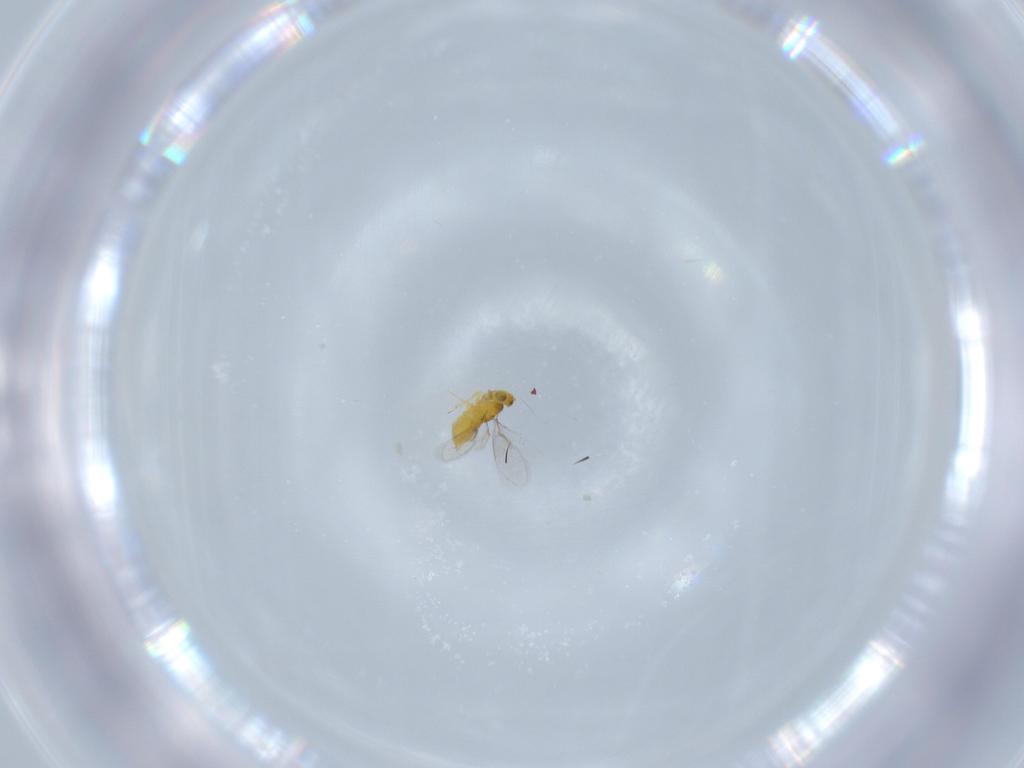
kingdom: Animalia
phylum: Arthropoda
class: Insecta
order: Hymenoptera
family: Aphelinidae
